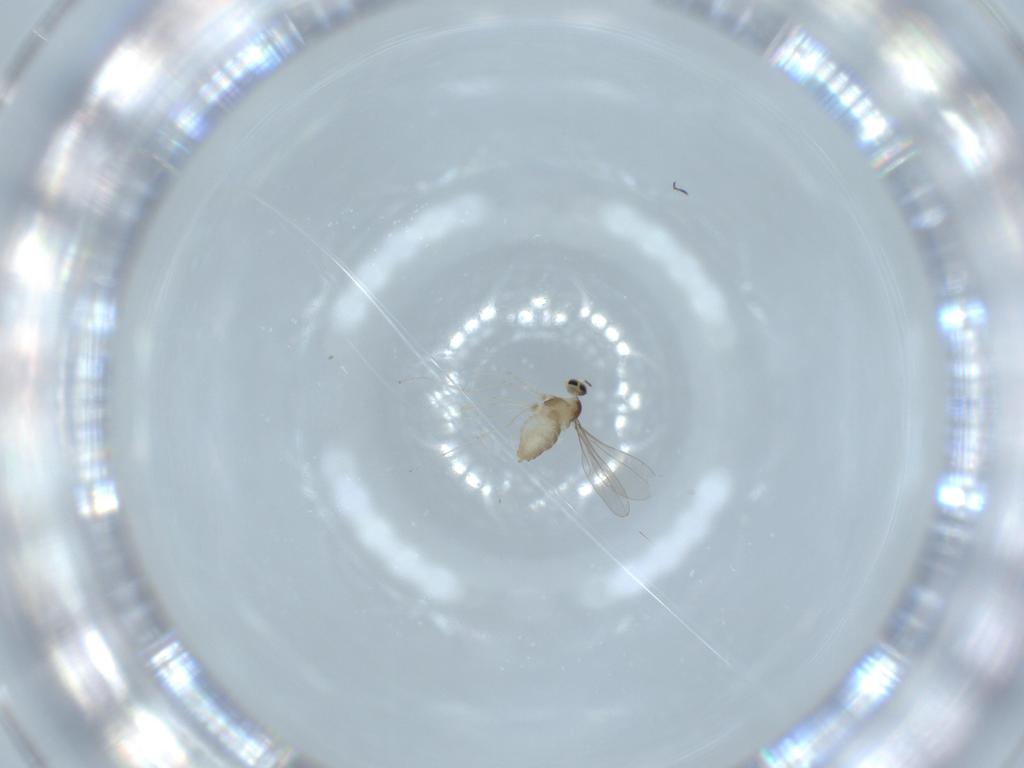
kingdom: Animalia
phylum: Arthropoda
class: Insecta
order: Diptera
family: Cecidomyiidae
